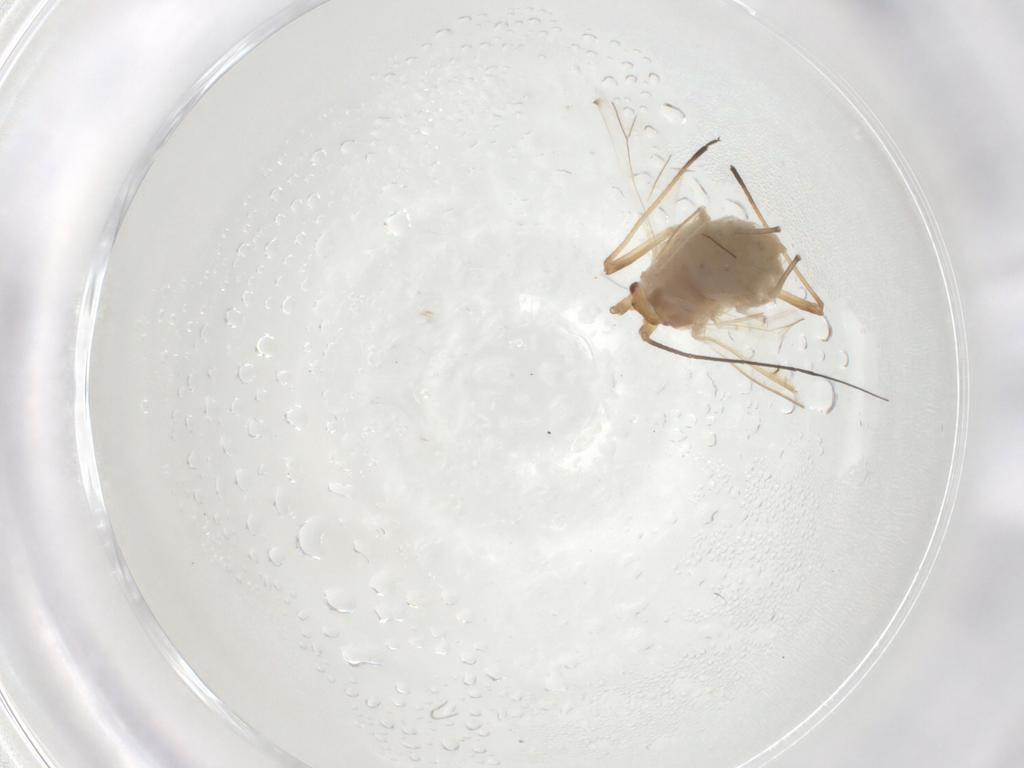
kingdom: Animalia
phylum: Arthropoda
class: Insecta
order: Hemiptera
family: Aphididae
